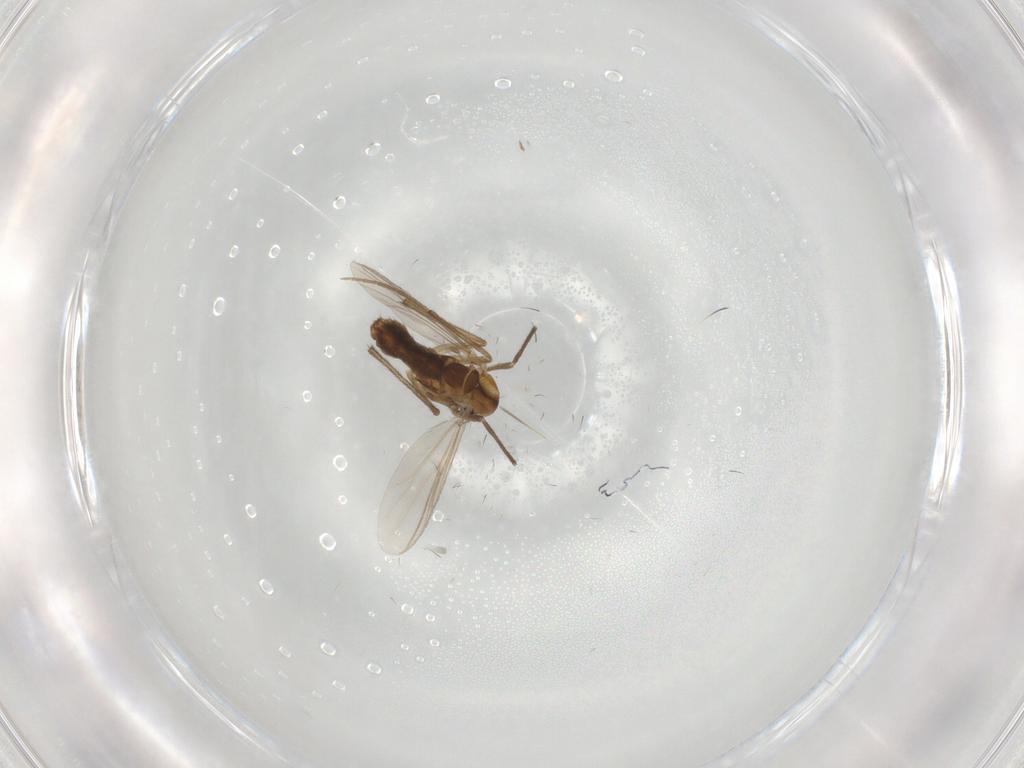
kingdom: Animalia
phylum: Arthropoda
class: Insecta
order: Diptera
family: Chironomidae
